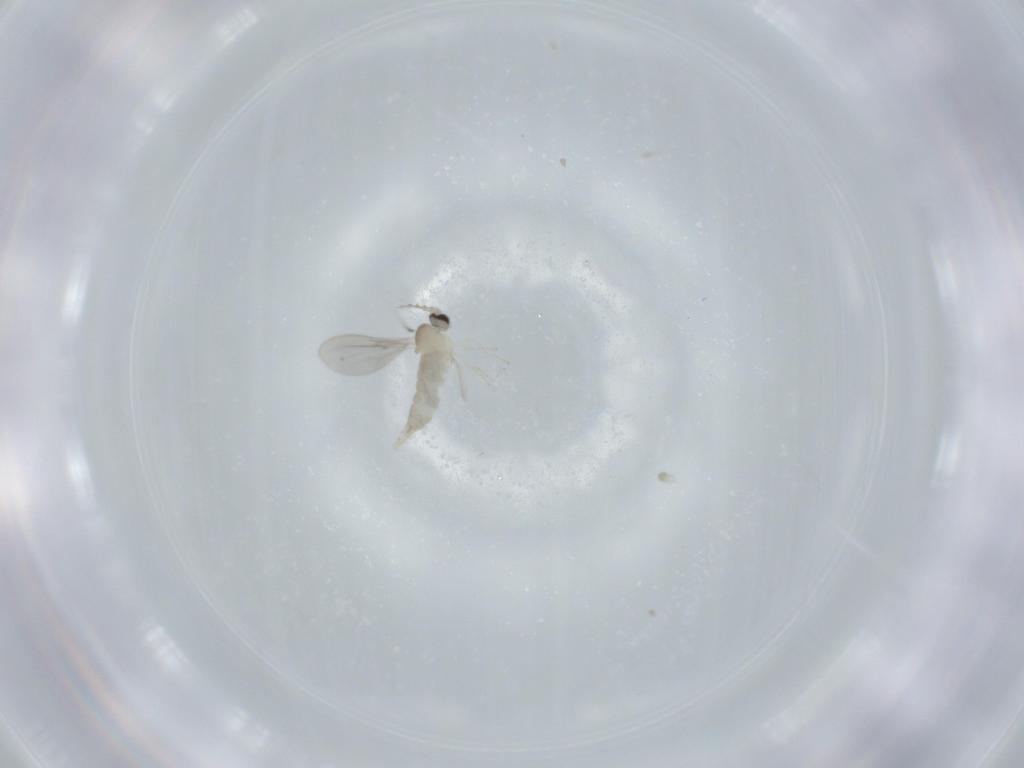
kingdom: Animalia
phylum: Arthropoda
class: Insecta
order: Diptera
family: Cecidomyiidae
